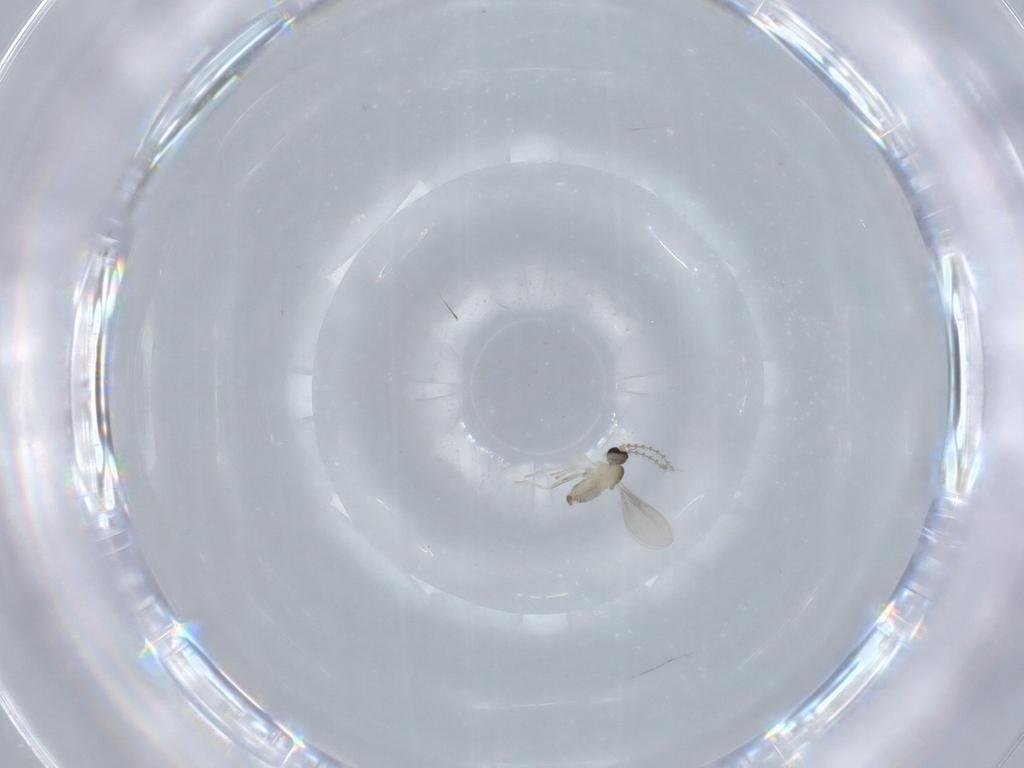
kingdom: Animalia
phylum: Arthropoda
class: Insecta
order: Diptera
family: Cecidomyiidae
